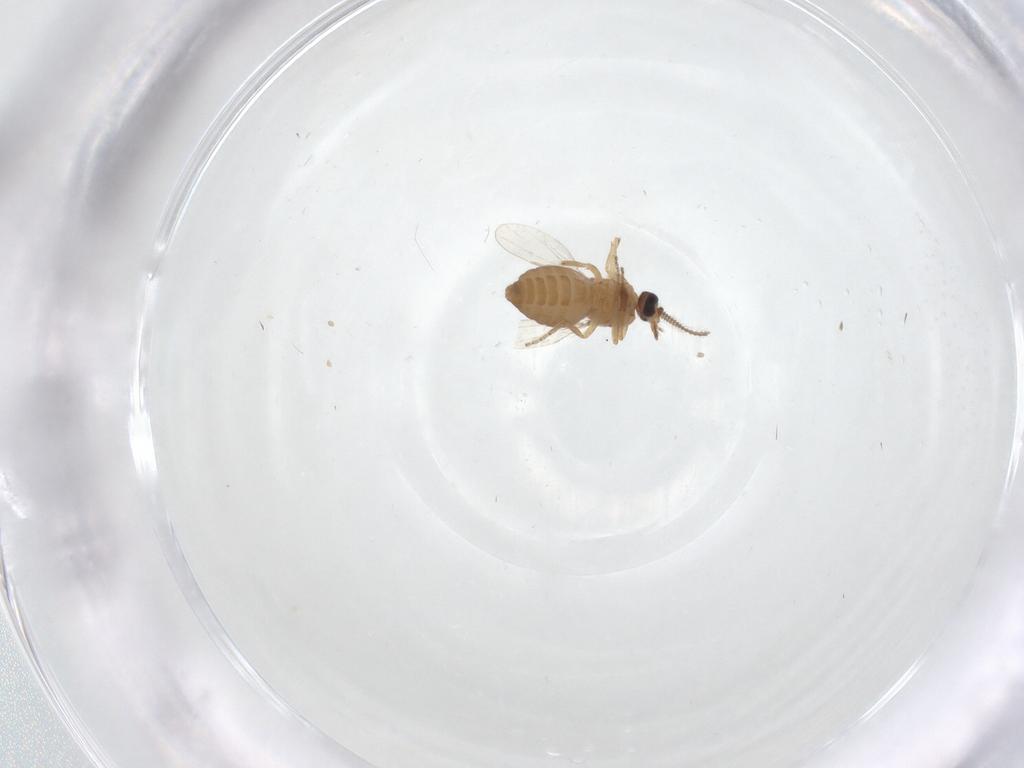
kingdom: Animalia
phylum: Arthropoda
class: Insecta
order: Diptera
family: Ceratopogonidae
